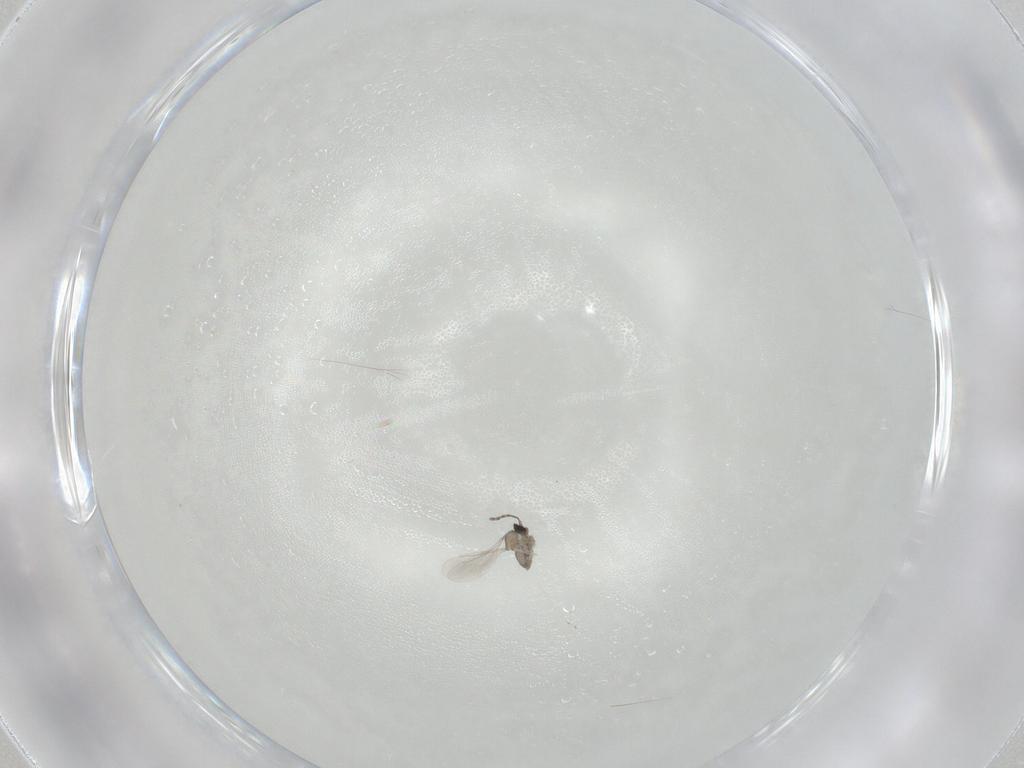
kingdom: Animalia
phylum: Arthropoda
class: Insecta
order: Diptera
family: Cecidomyiidae
